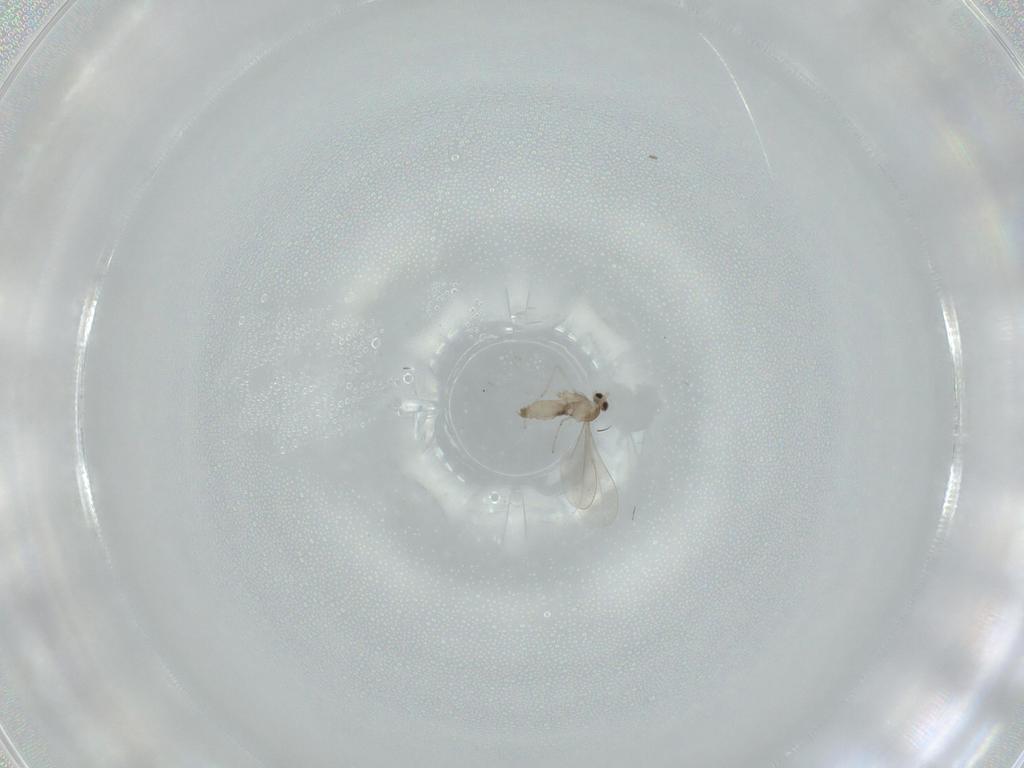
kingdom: Animalia
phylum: Arthropoda
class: Insecta
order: Diptera
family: Cecidomyiidae
